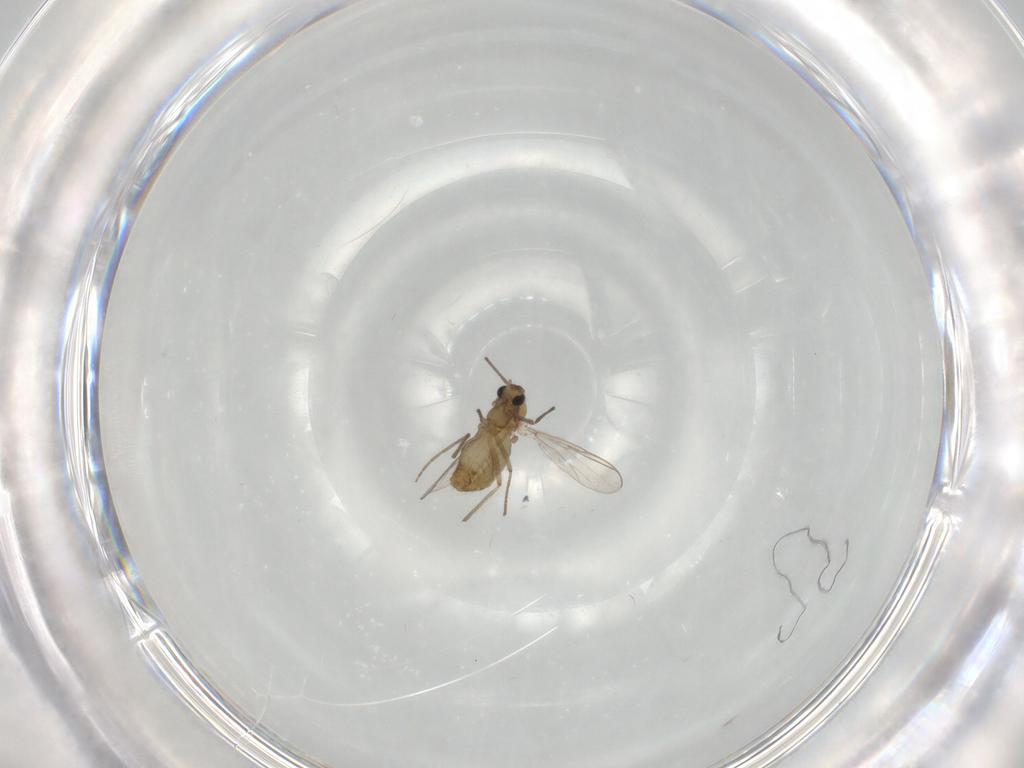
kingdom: Animalia
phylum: Arthropoda
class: Insecta
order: Diptera
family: Chironomidae
